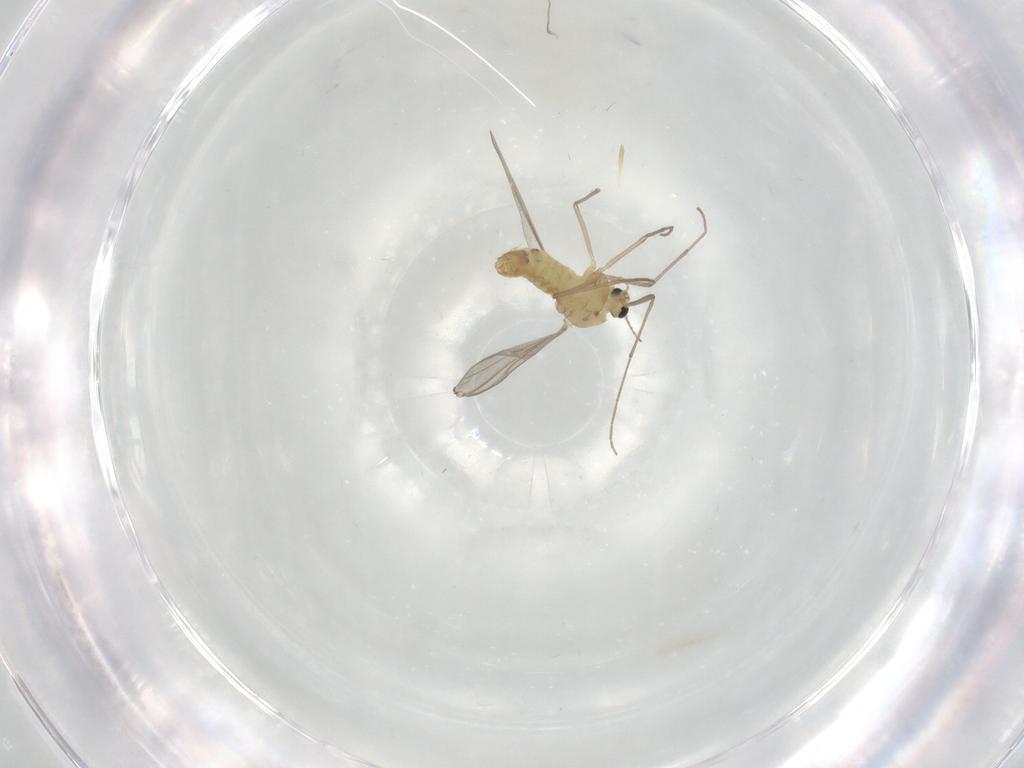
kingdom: Animalia
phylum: Arthropoda
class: Insecta
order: Diptera
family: Chironomidae
